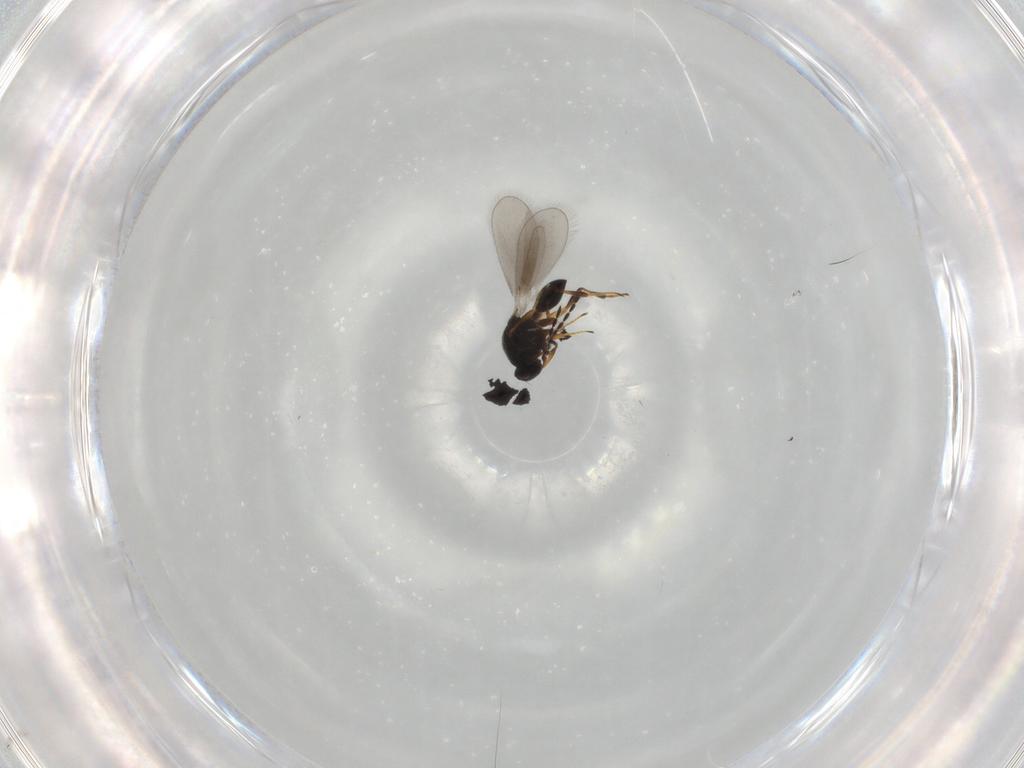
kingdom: Animalia
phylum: Arthropoda
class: Insecta
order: Hymenoptera
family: Platygastridae
